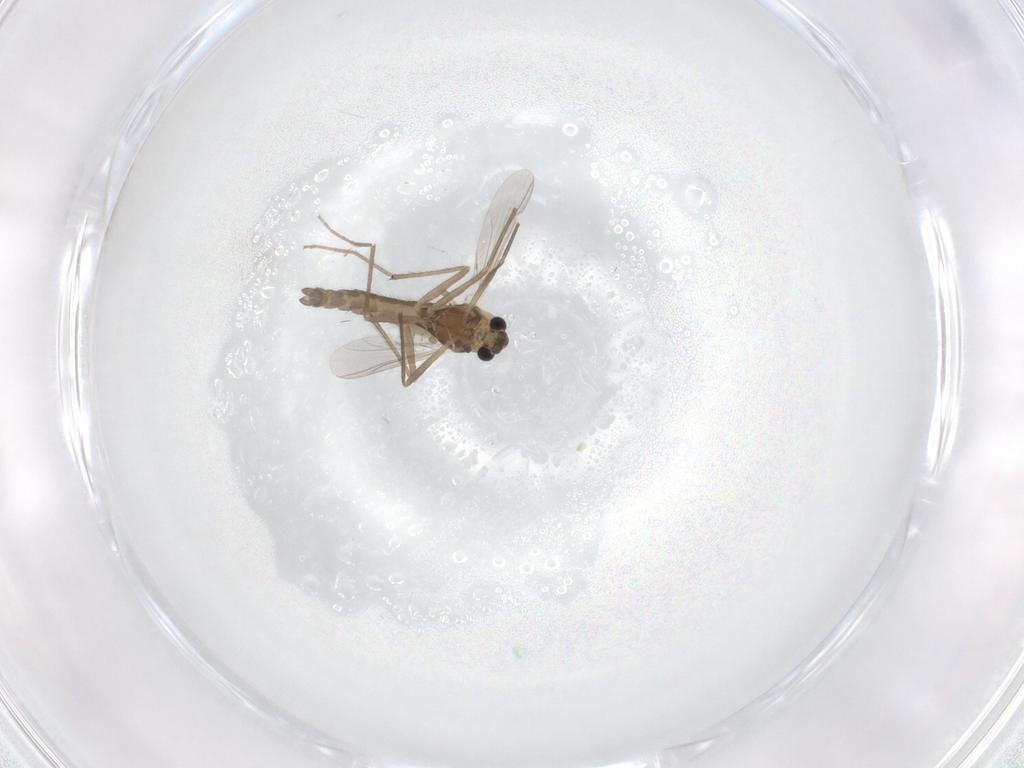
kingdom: Animalia
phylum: Arthropoda
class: Insecta
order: Diptera
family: Chironomidae
